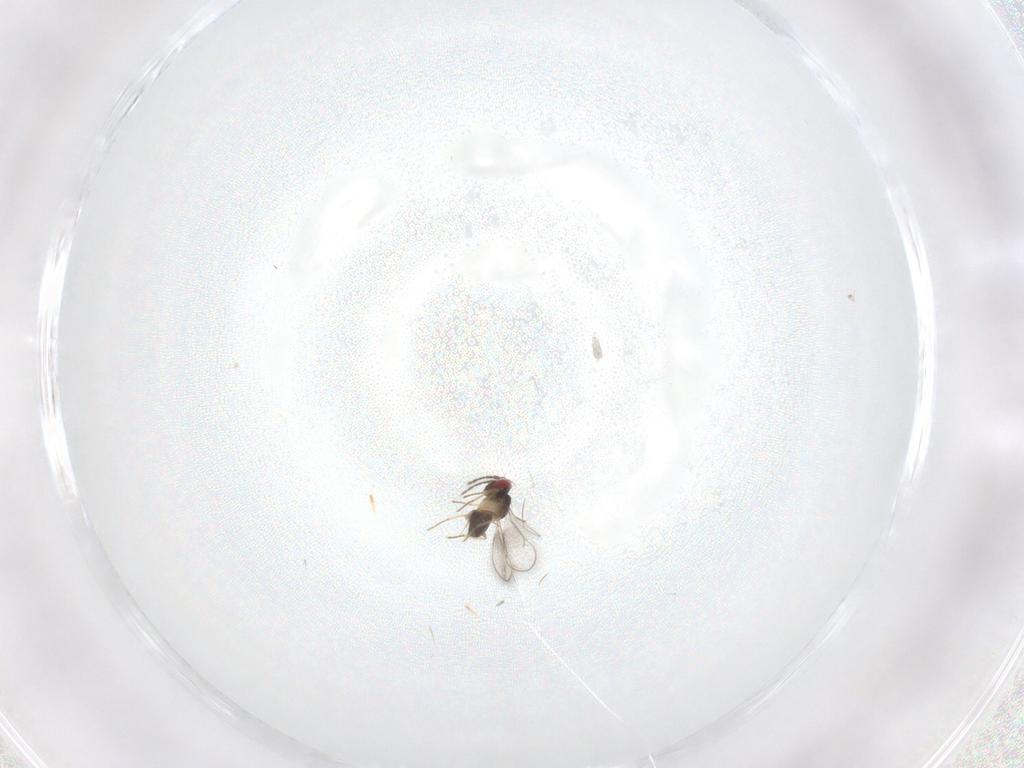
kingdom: Animalia
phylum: Arthropoda
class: Insecta
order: Hymenoptera
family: Eulophidae
